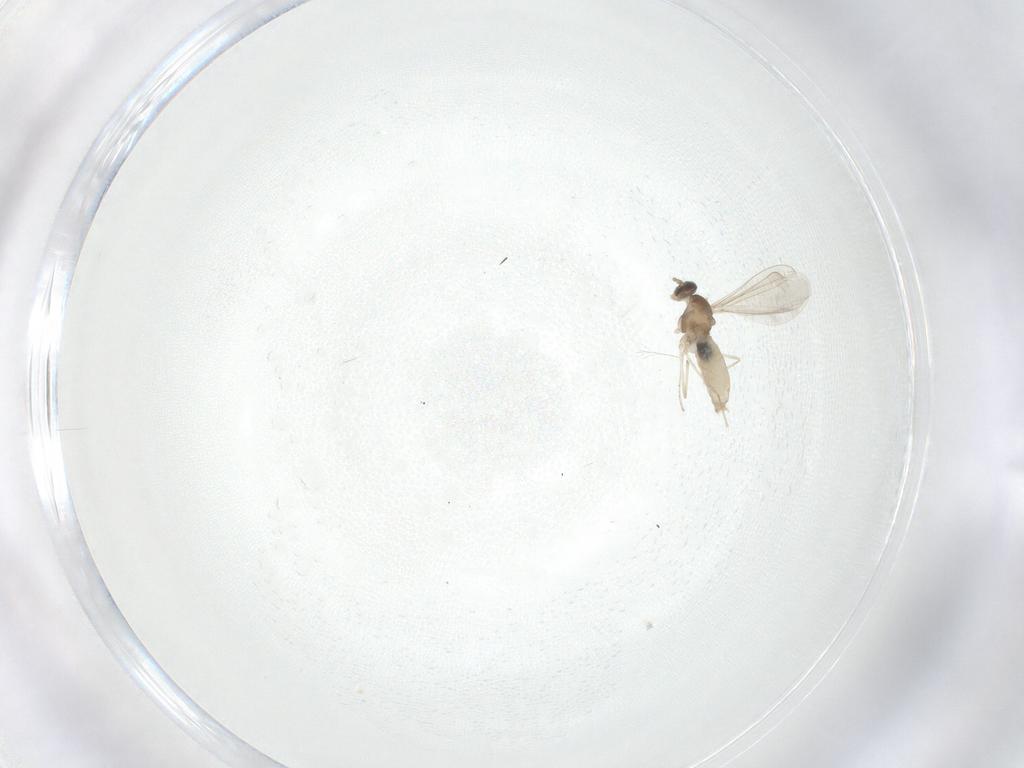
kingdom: Animalia
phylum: Arthropoda
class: Insecta
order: Diptera
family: Cecidomyiidae
